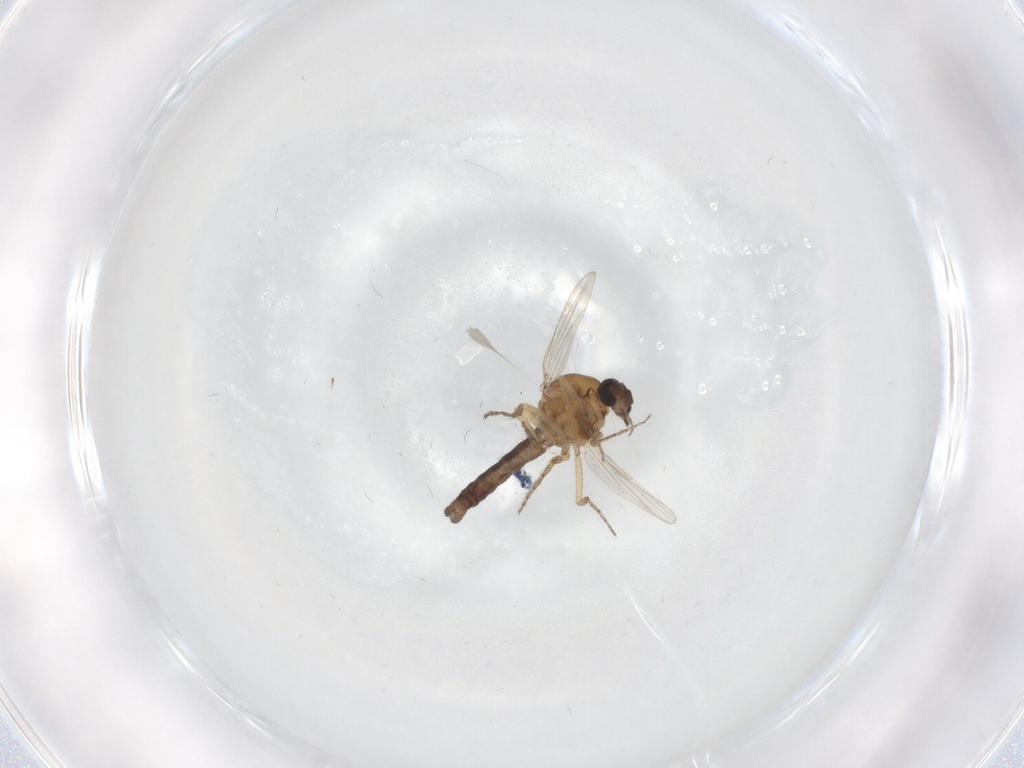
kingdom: Animalia
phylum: Arthropoda
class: Insecta
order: Diptera
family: Ceratopogonidae
